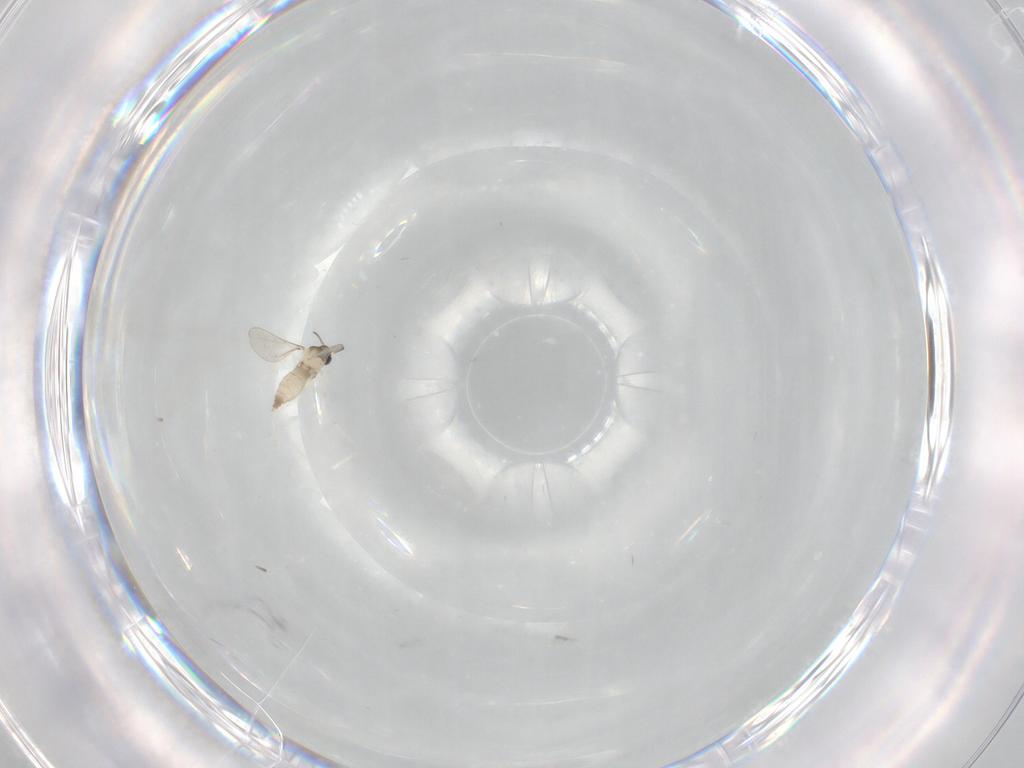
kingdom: Animalia
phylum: Arthropoda
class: Insecta
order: Diptera
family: Cecidomyiidae
